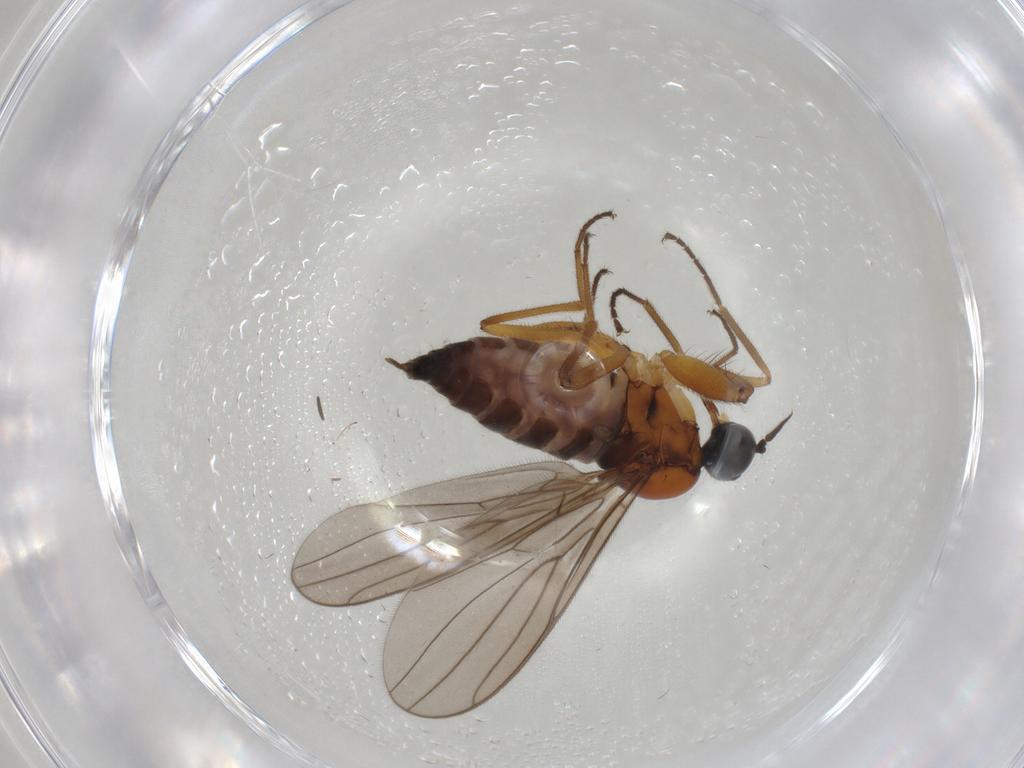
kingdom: Animalia
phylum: Arthropoda
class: Insecta
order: Diptera
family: Hybotidae
